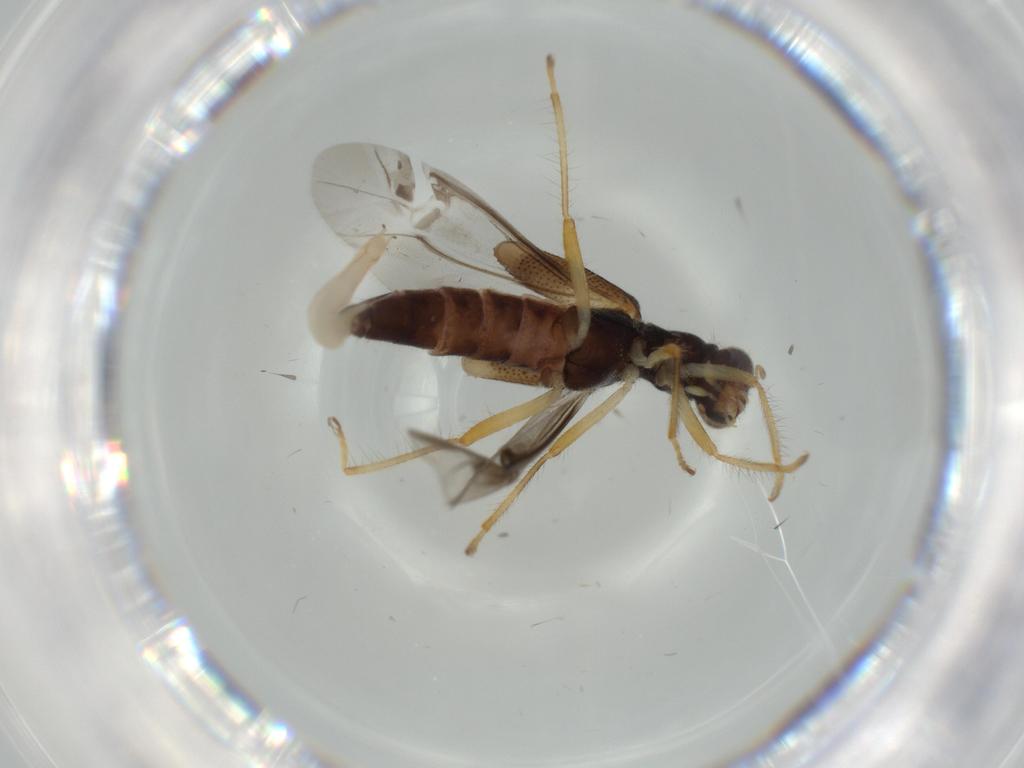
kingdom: Animalia
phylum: Arthropoda
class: Insecta
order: Coleoptera
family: Cleridae
